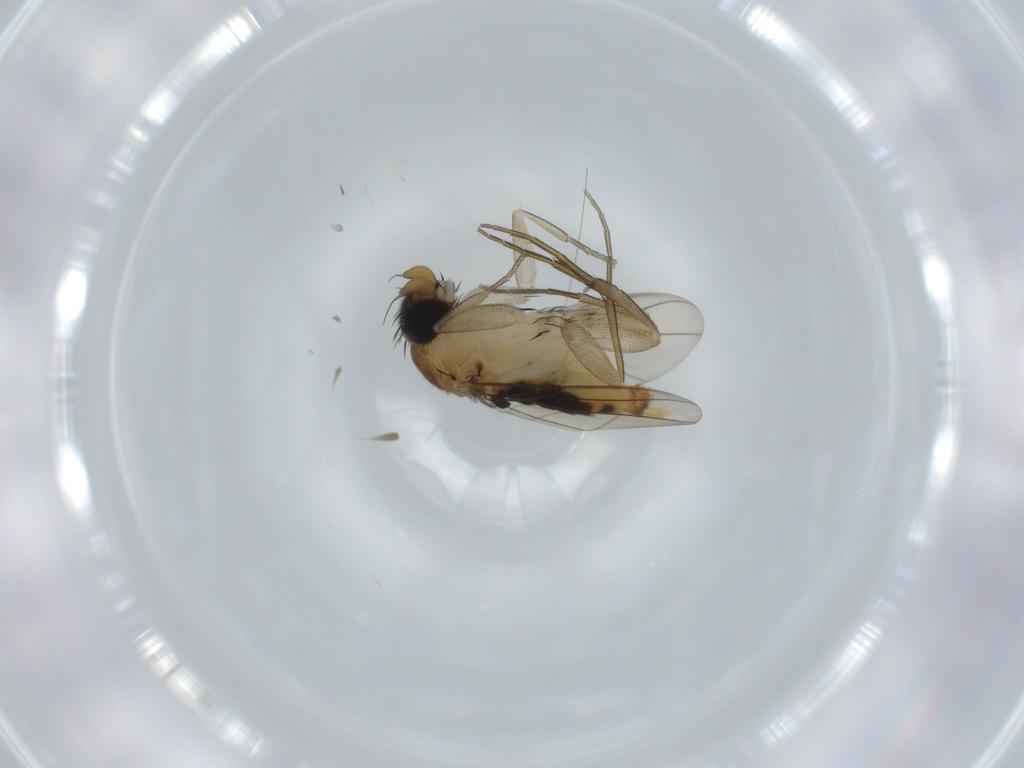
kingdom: Animalia
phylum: Arthropoda
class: Insecta
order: Diptera
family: Phoridae
